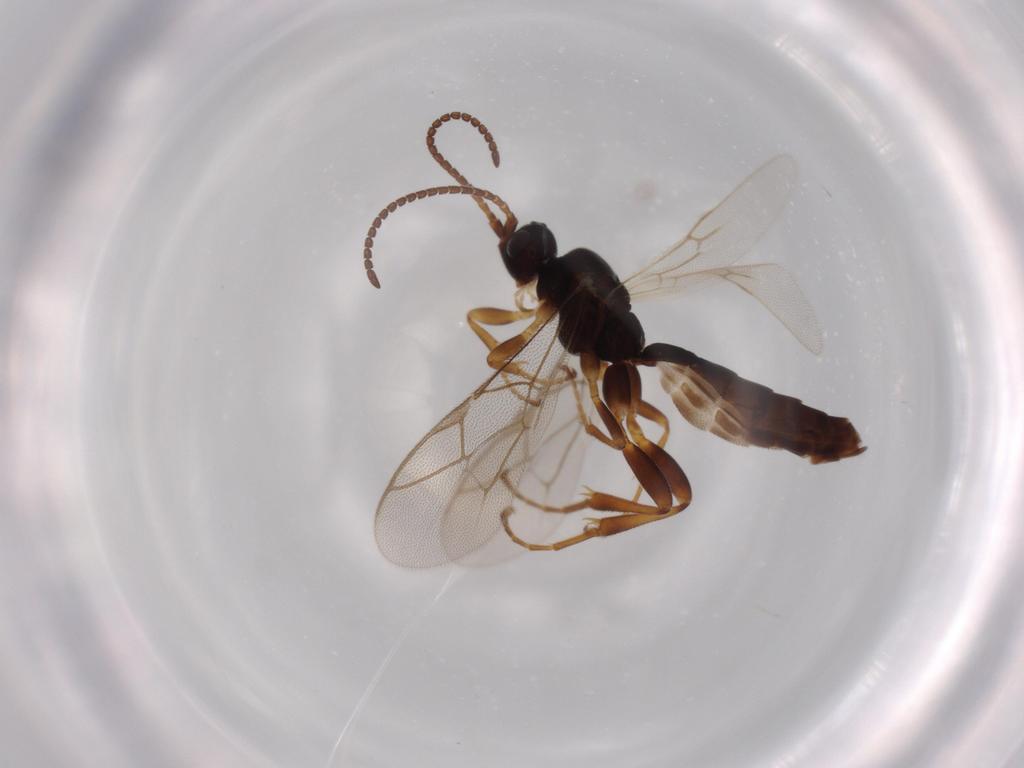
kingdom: Animalia
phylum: Arthropoda
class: Insecta
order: Hymenoptera
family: Ichneumonidae
